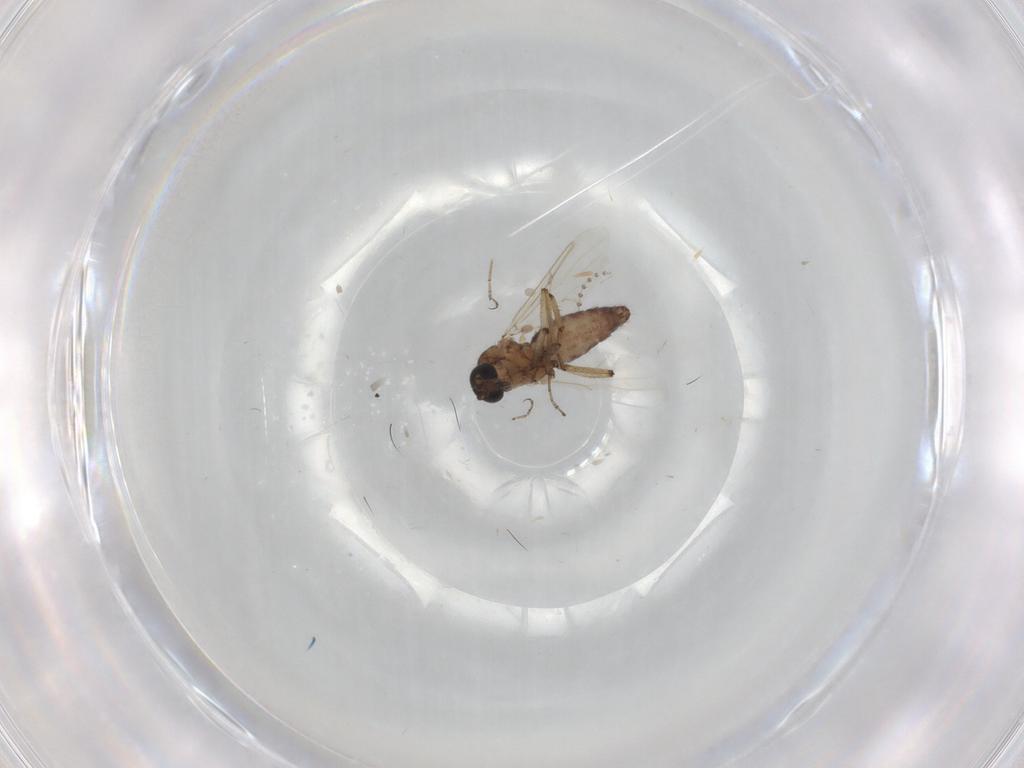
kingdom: Animalia
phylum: Arthropoda
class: Insecta
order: Diptera
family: Ceratopogonidae
